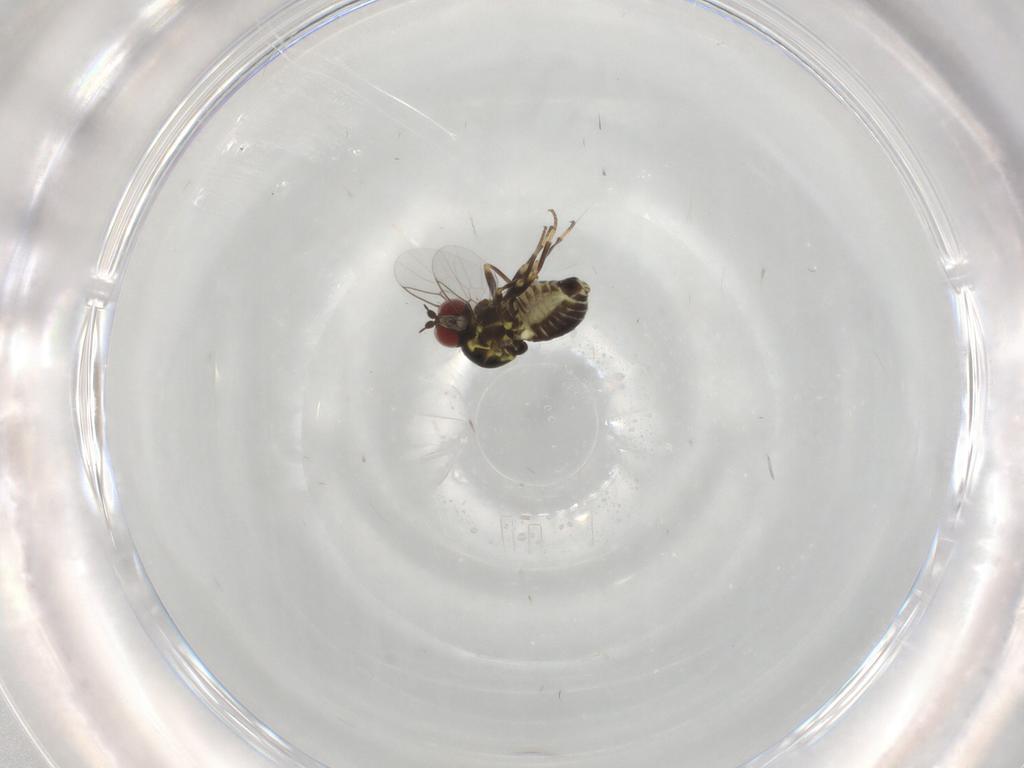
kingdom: Animalia
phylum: Arthropoda
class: Insecta
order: Diptera
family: Mythicomyiidae
